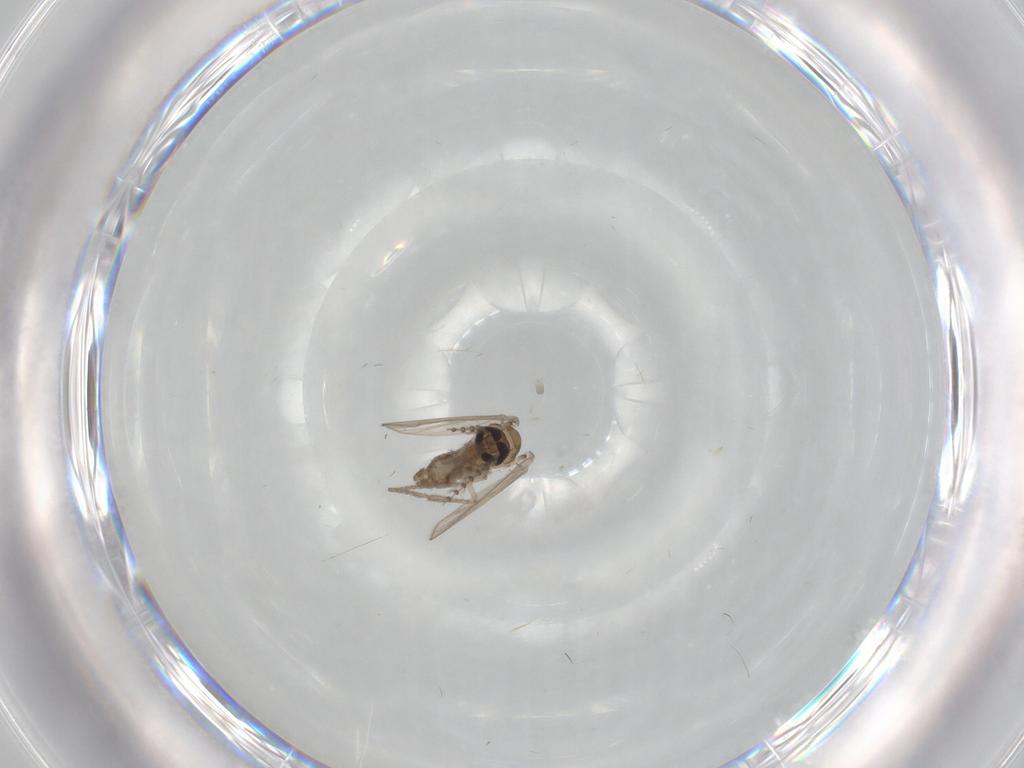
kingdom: Animalia
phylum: Arthropoda
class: Insecta
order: Diptera
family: Psychodidae
